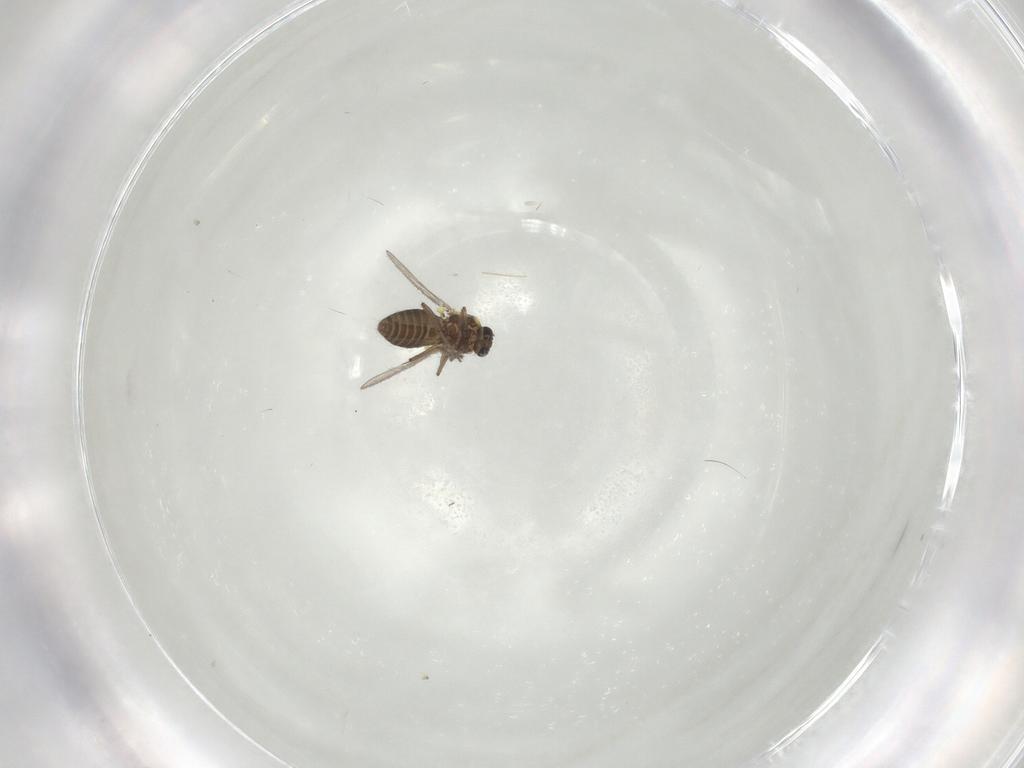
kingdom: Animalia
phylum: Arthropoda
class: Insecta
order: Diptera
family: Ceratopogonidae
